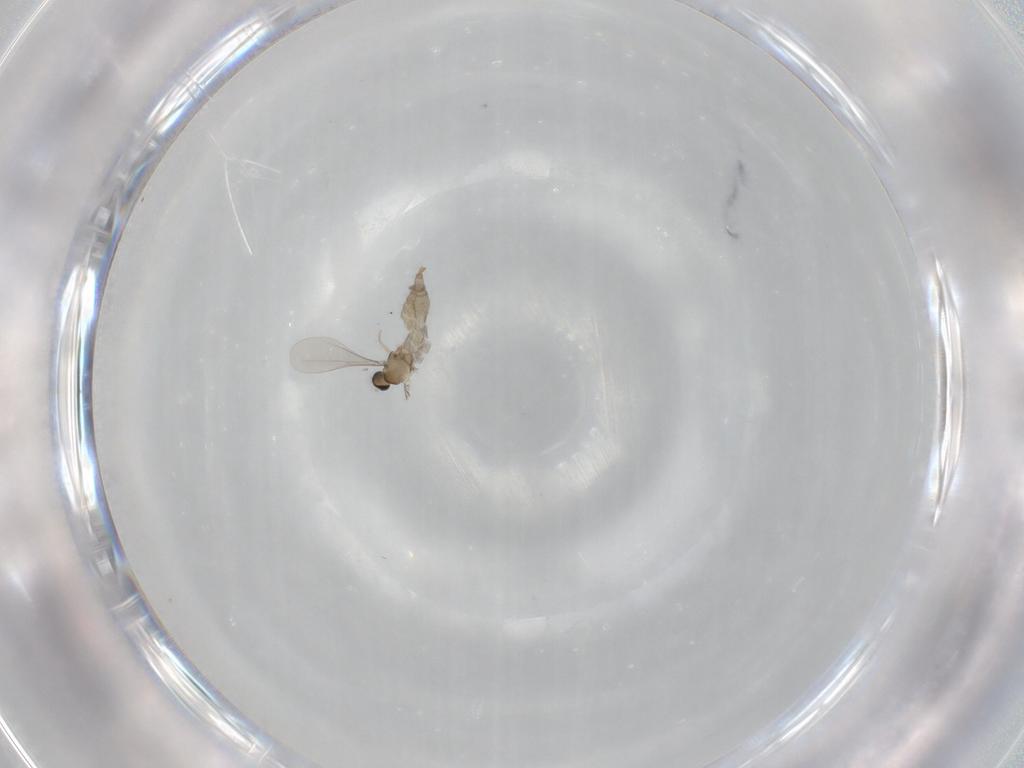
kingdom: Animalia
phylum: Arthropoda
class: Insecta
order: Diptera
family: Cecidomyiidae
